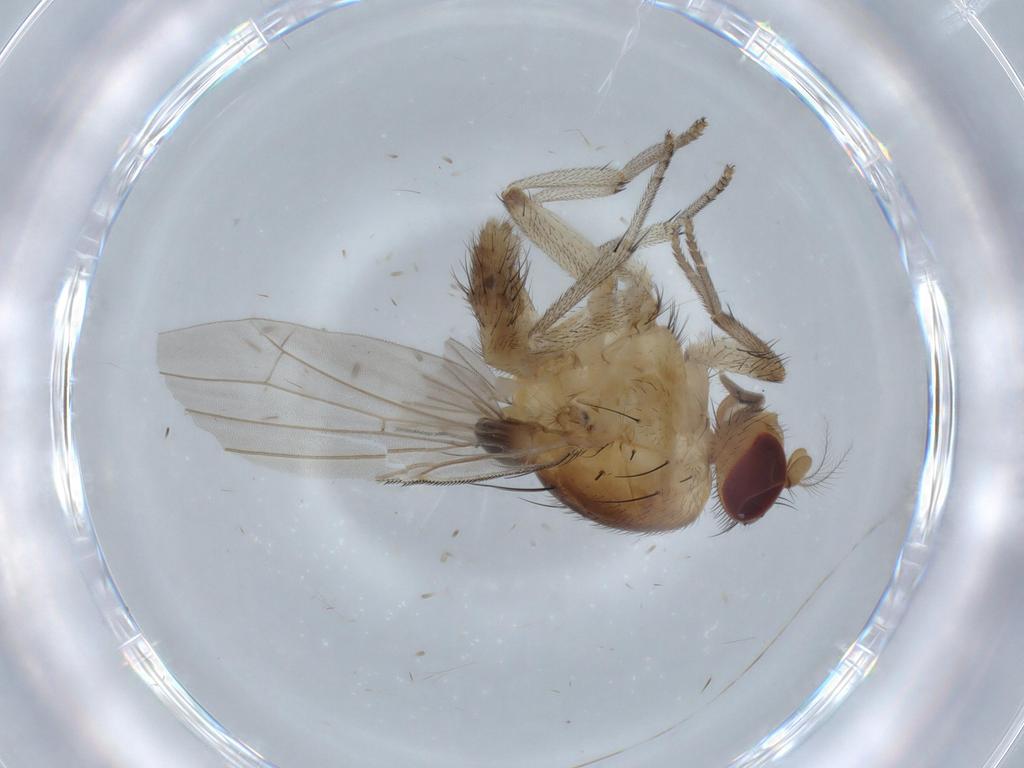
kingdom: Animalia
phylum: Arthropoda
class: Insecta
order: Diptera
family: Lauxaniidae
